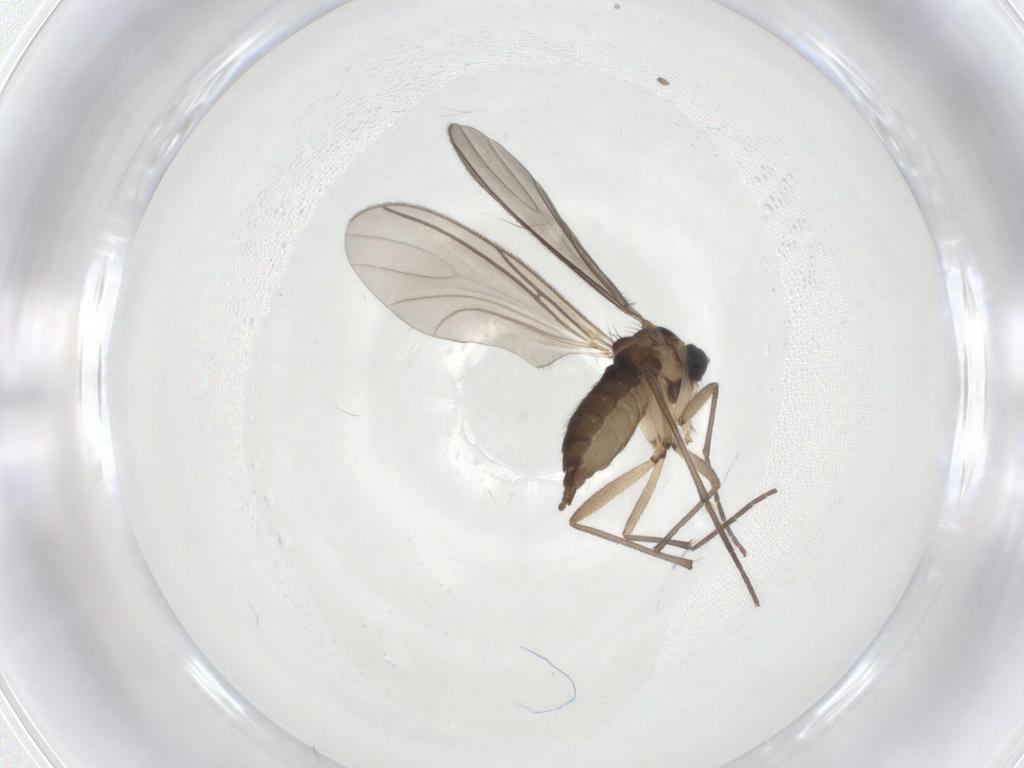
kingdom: Animalia
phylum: Arthropoda
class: Insecta
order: Diptera
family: Sciaridae
